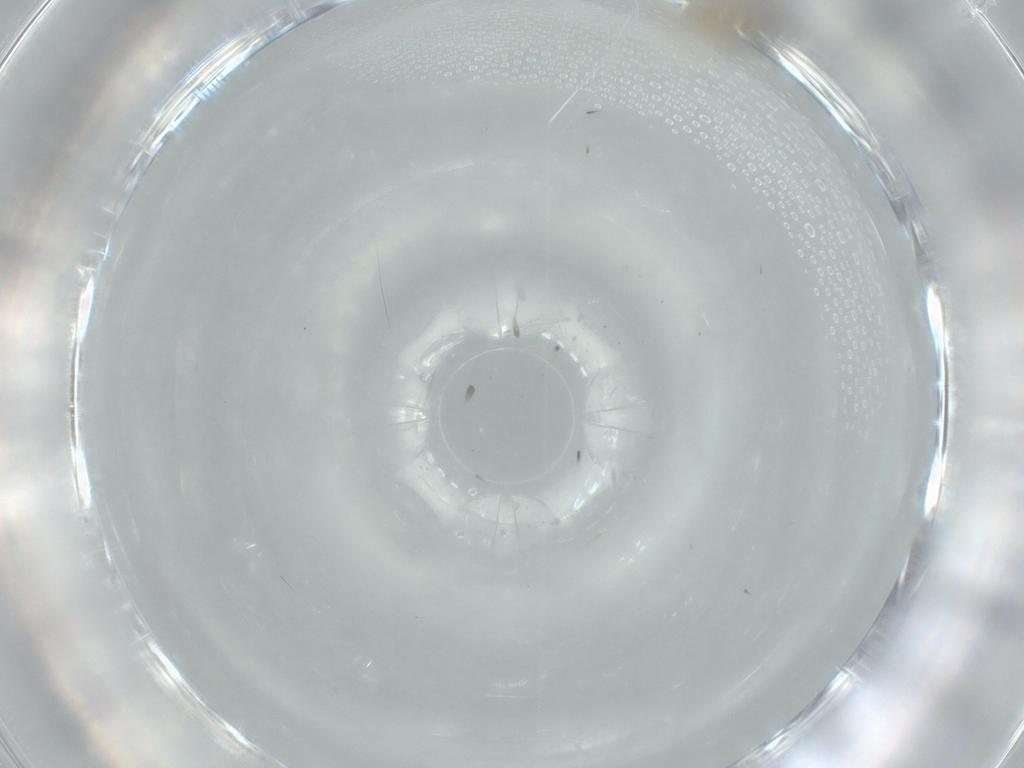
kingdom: Animalia
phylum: Arthropoda
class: Insecta
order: Diptera
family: Cecidomyiidae
